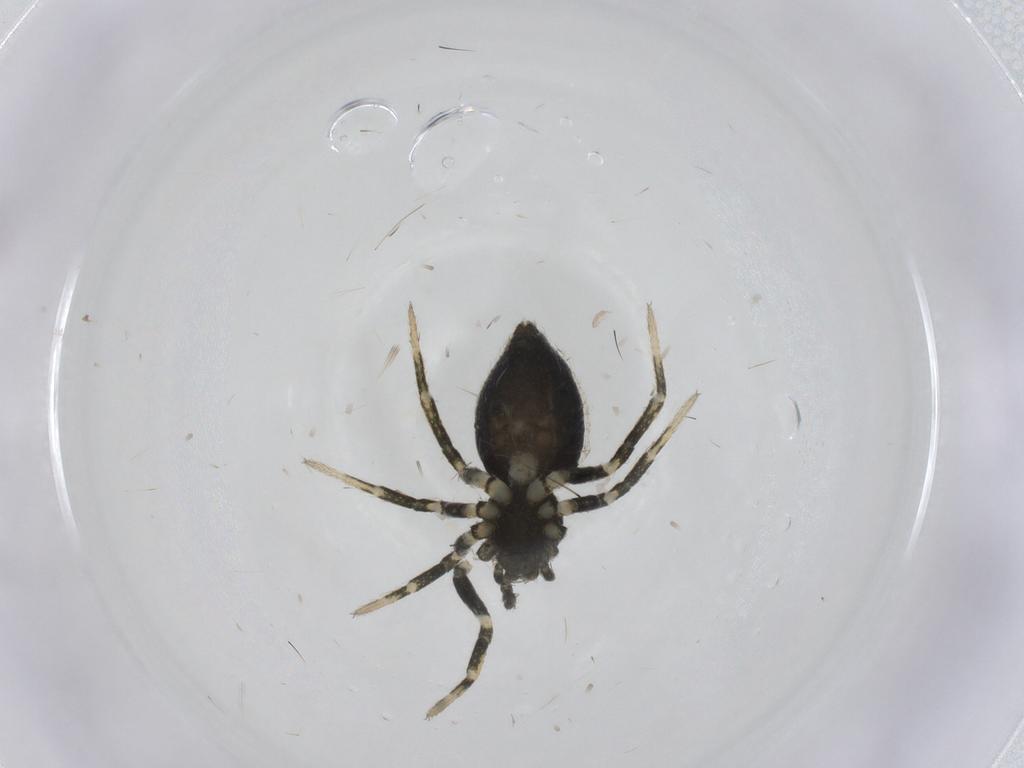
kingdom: Animalia
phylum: Arthropoda
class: Arachnida
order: Araneae
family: Theridiidae
